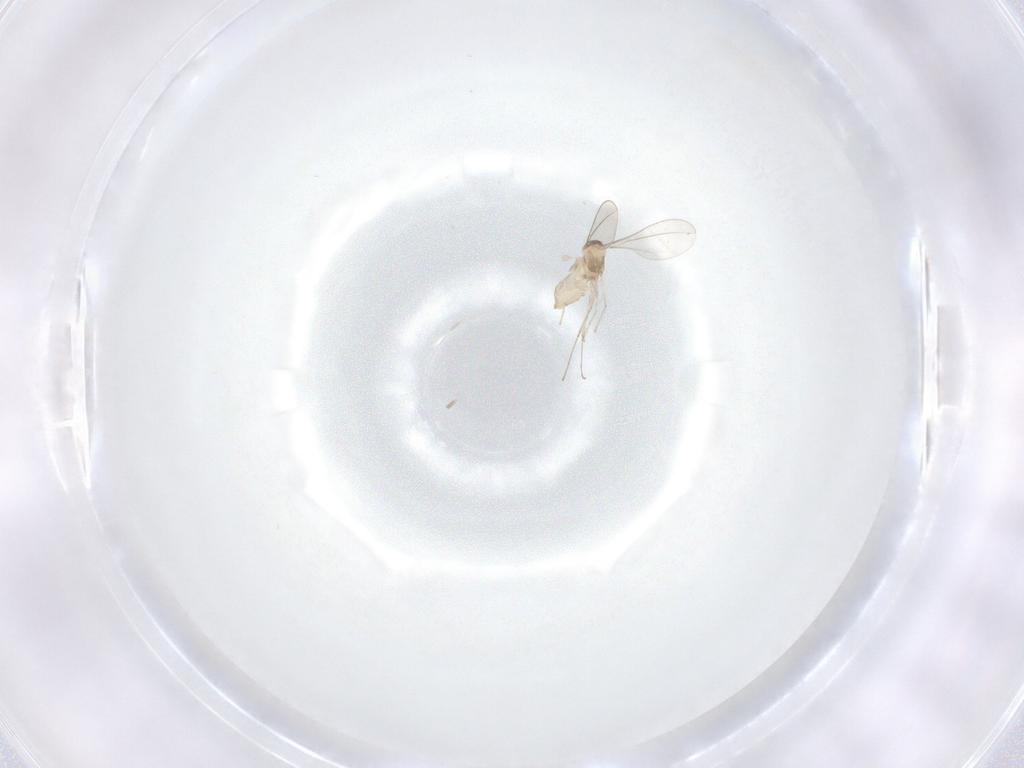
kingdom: Animalia
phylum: Arthropoda
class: Insecta
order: Diptera
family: Cecidomyiidae
